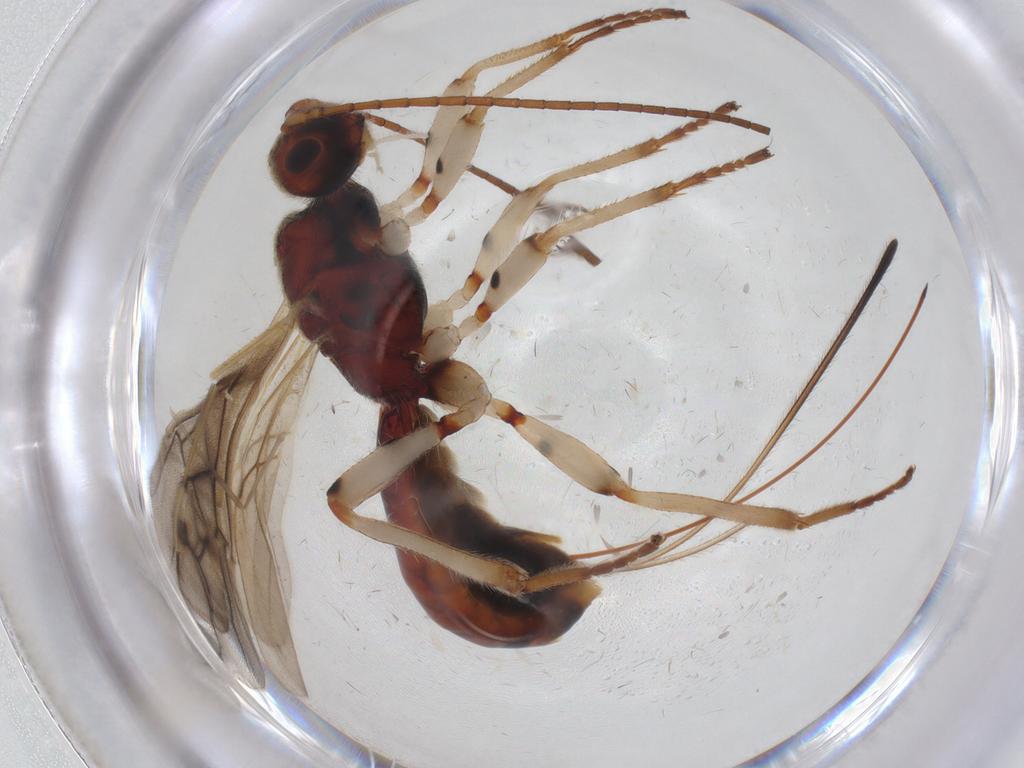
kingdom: Animalia
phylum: Arthropoda
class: Insecta
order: Hymenoptera
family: Braconidae
